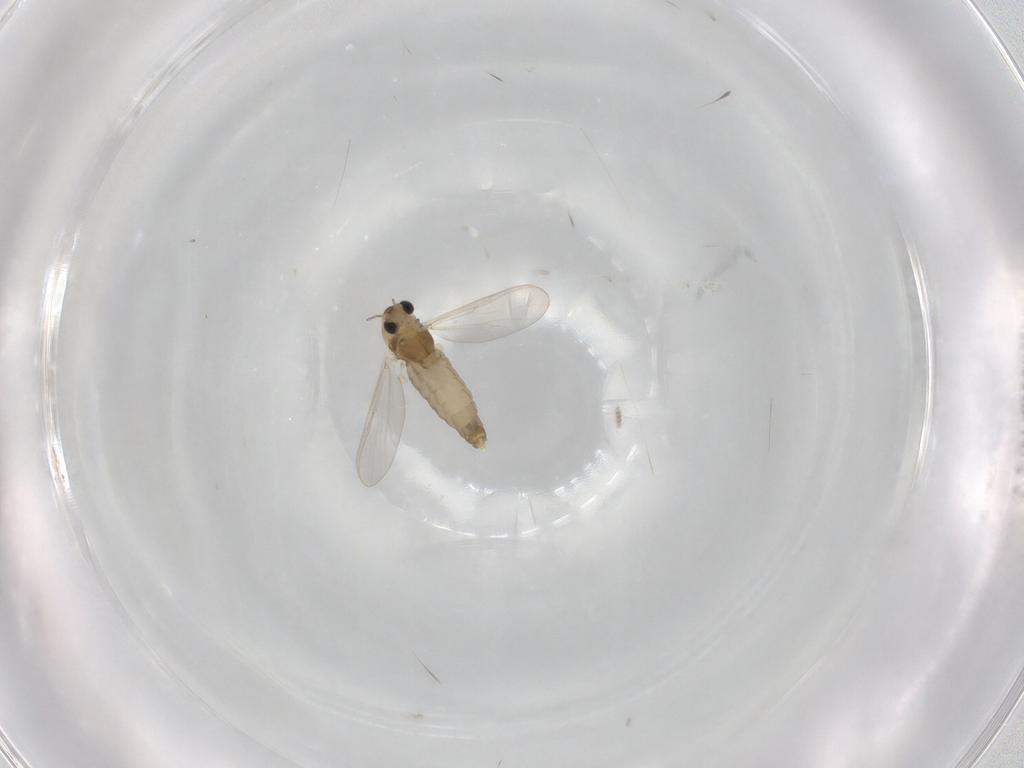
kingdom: Animalia
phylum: Arthropoda
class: Insecta
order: Diptera
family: Chironomidae
